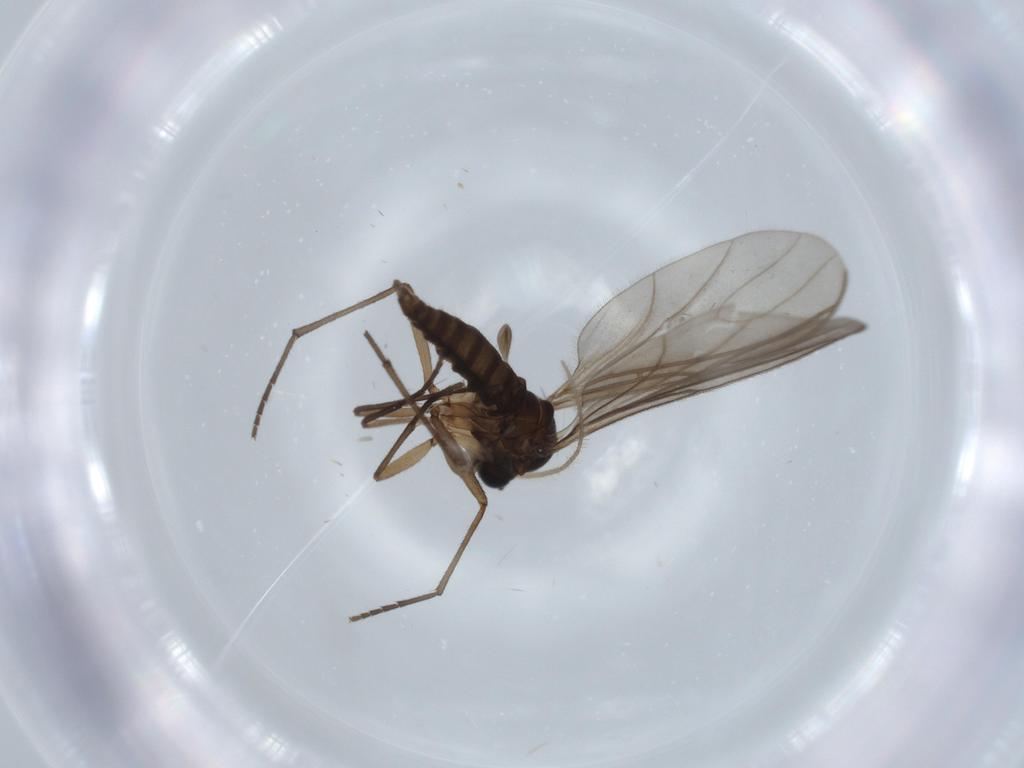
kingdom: Animalia
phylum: Arthropoda
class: Insecta
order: Diptera
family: Sciaridae
